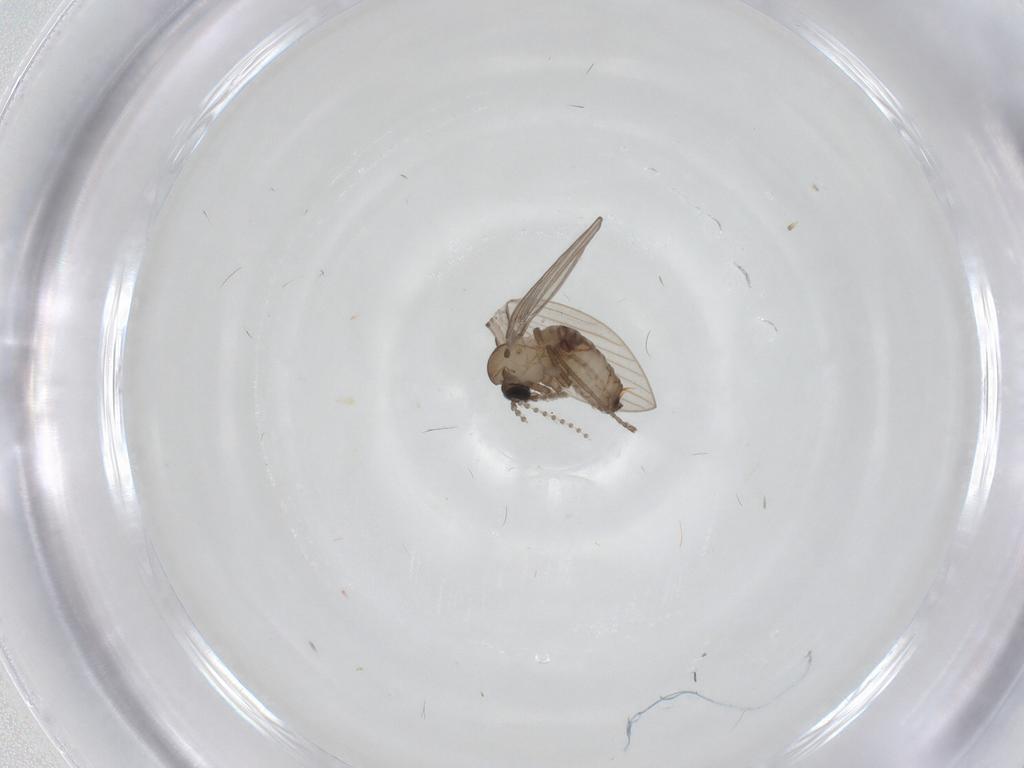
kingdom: Animalia
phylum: Arthropoda
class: Insecta
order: Diptera
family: Psychodidae
